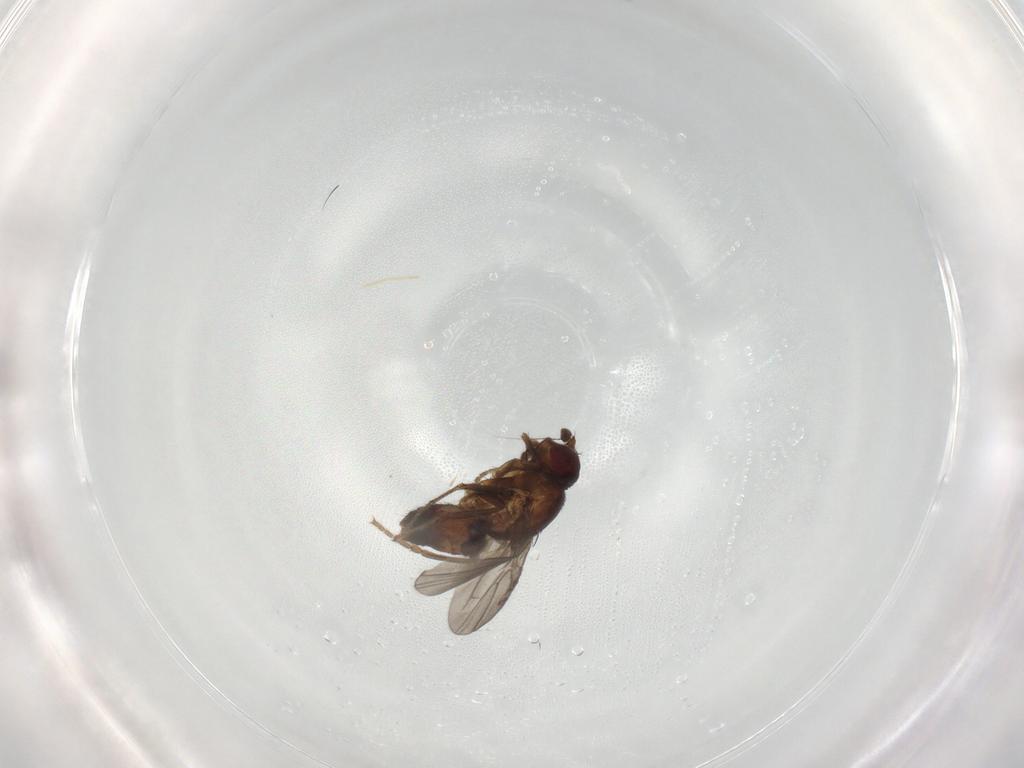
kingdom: Animalia
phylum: Arthropoda
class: Insecta
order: Diptera
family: Sphaeroceridae
